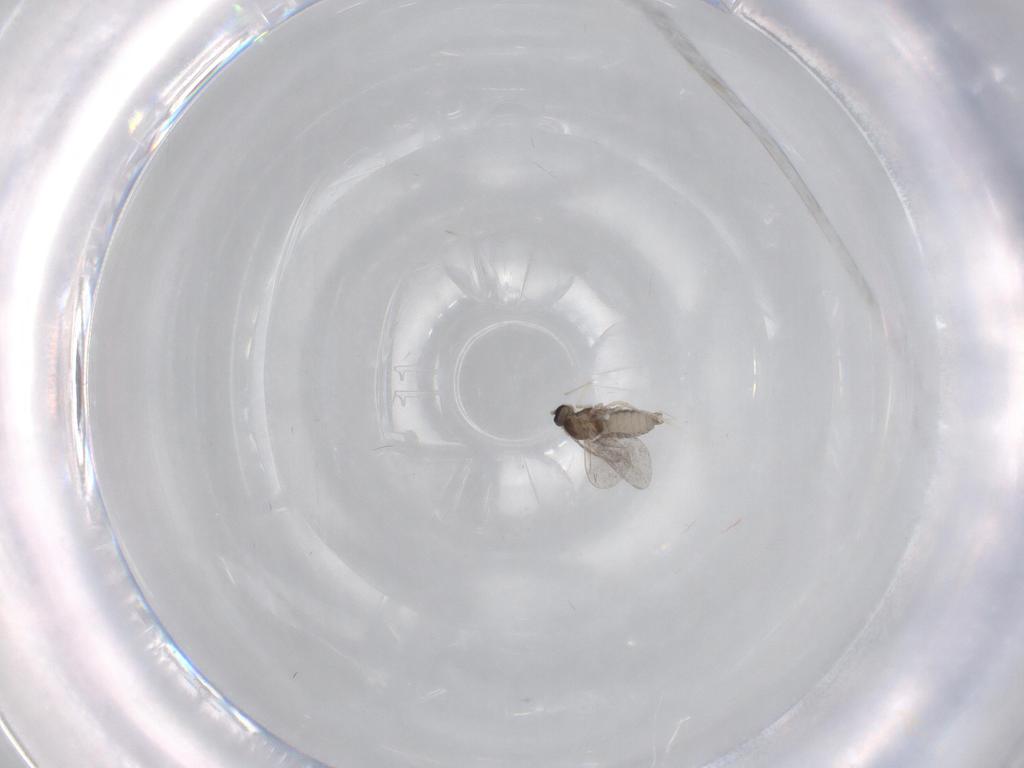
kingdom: Animalia
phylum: Arthropoda
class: Insecta
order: Diptera
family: Cecidomyiidae
